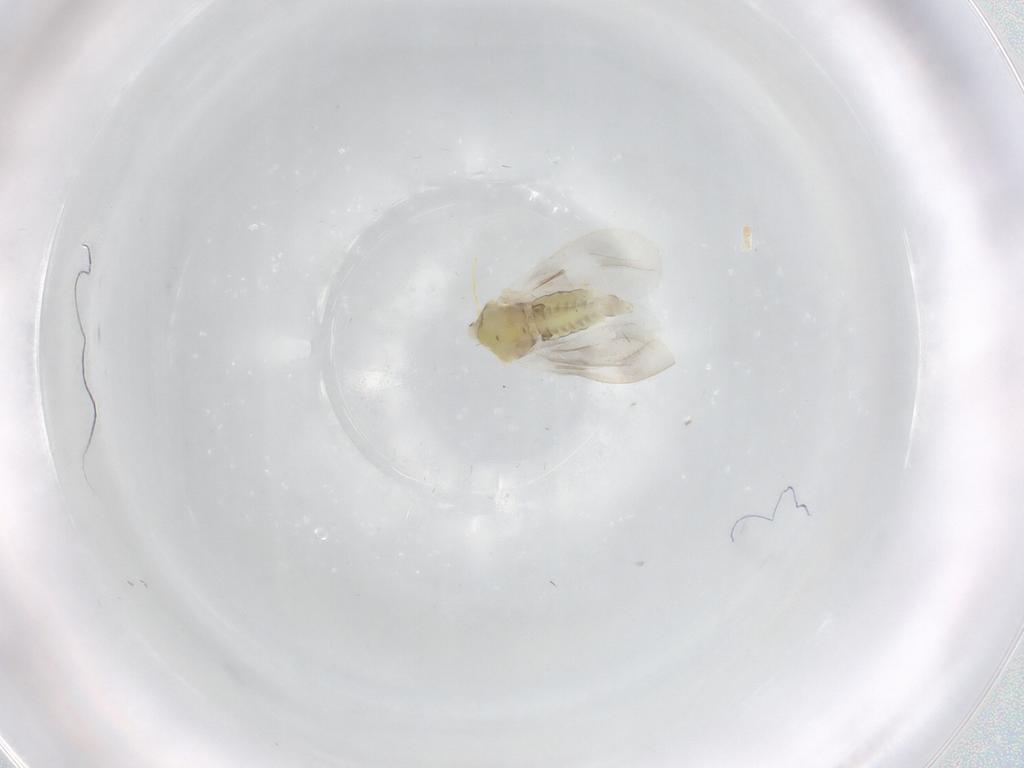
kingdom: Animalia
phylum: Arthropoda
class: Insecta
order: Hemiptera
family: Aleyrodidae
